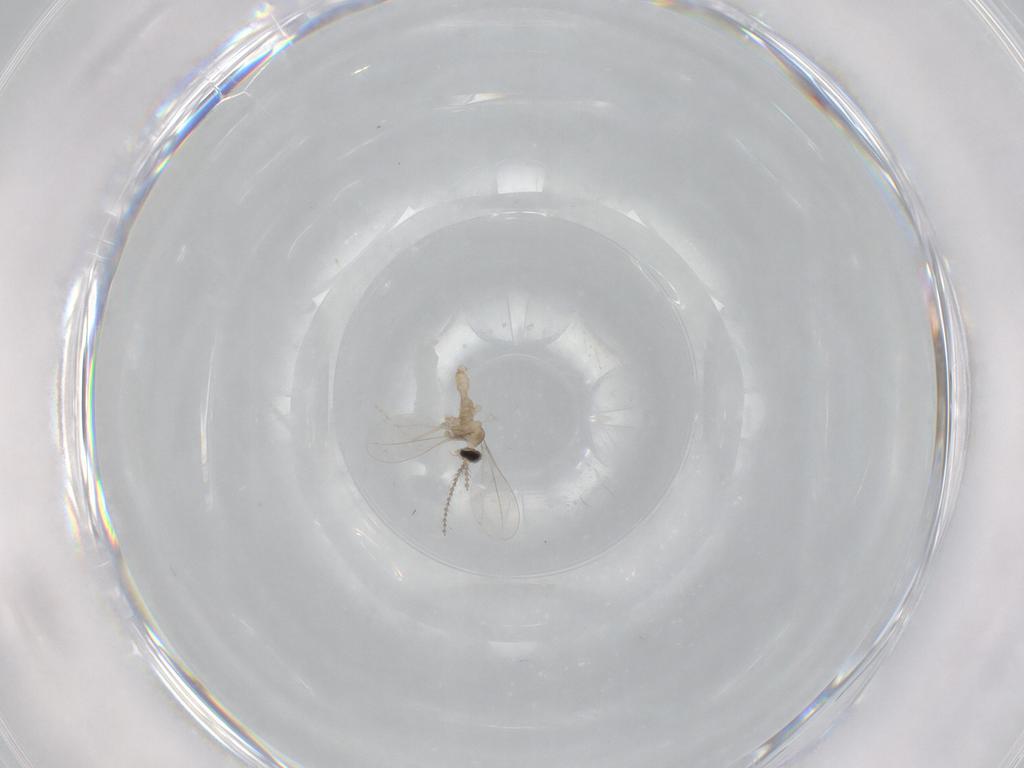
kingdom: Animalia
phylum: Arthropoda
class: Insecta
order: Diptera
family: Cecidomyiidae
